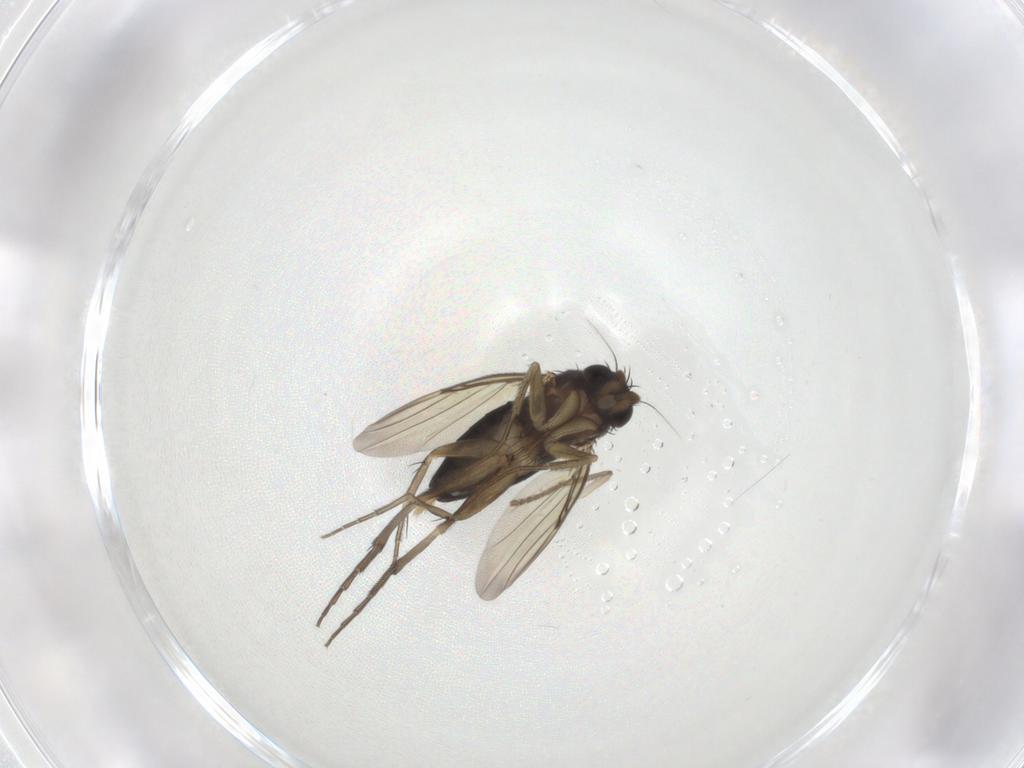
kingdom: Animalia
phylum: Arthropoda
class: Insecta
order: Diptera
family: Psychodidae
